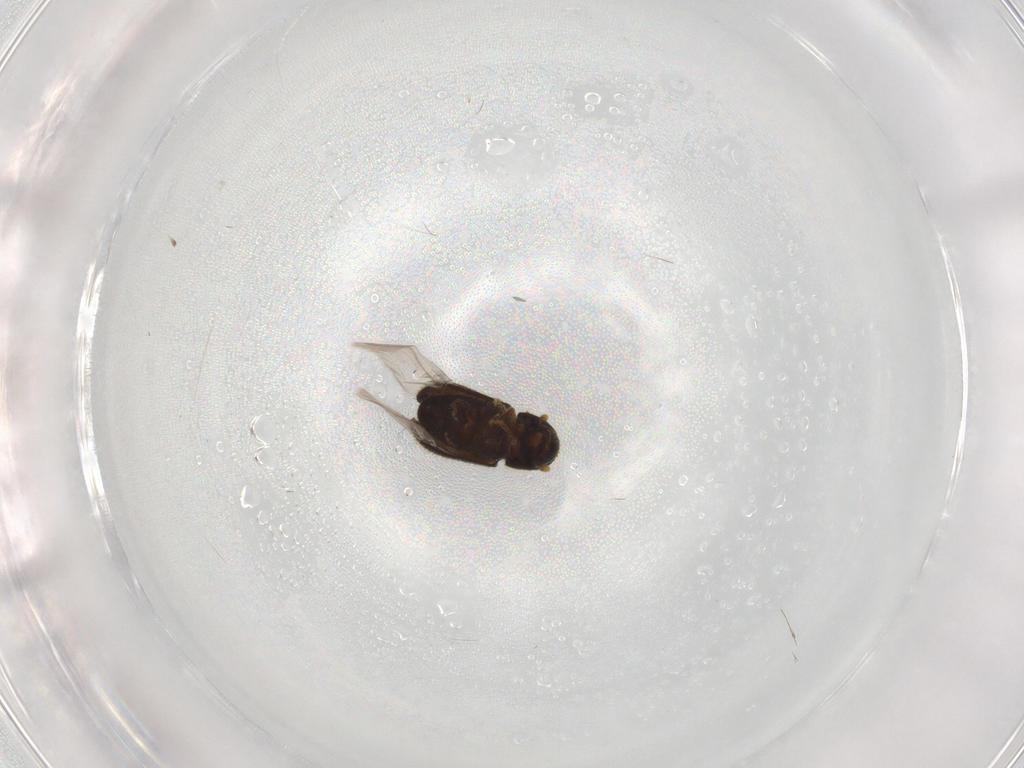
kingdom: Animalia
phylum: Arthropoda
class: Insecta
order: Coleoptera
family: Curculionidae
